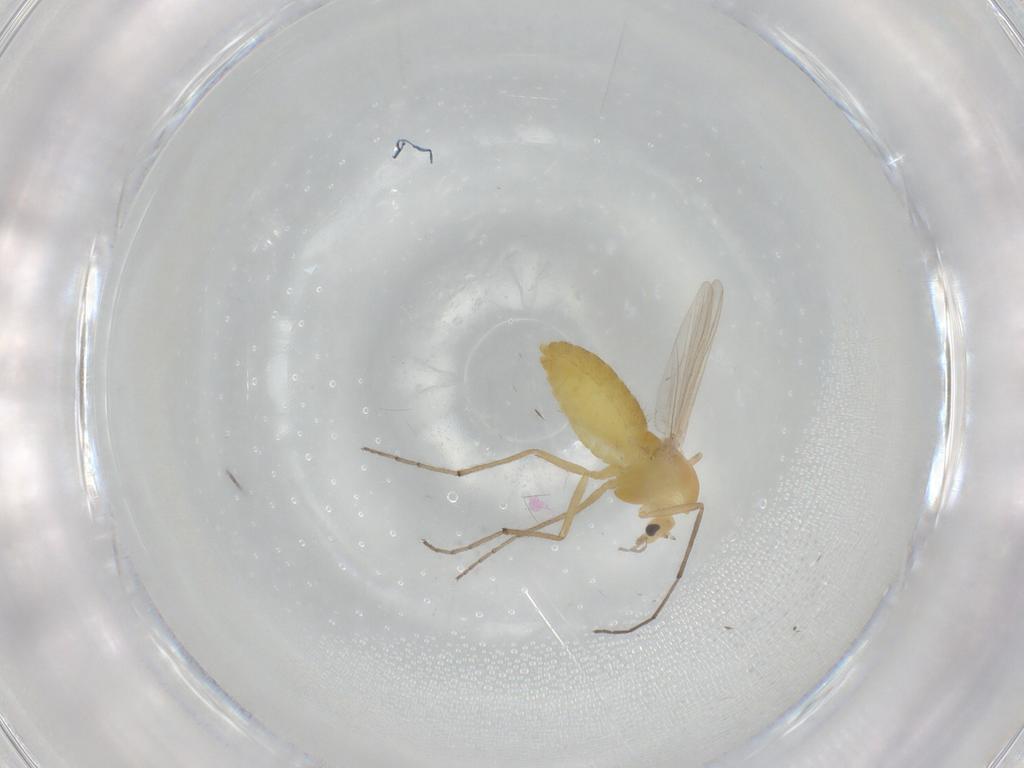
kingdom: Animalia
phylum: Arthropoda
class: Insecta
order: Diptera
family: Chironomidae
